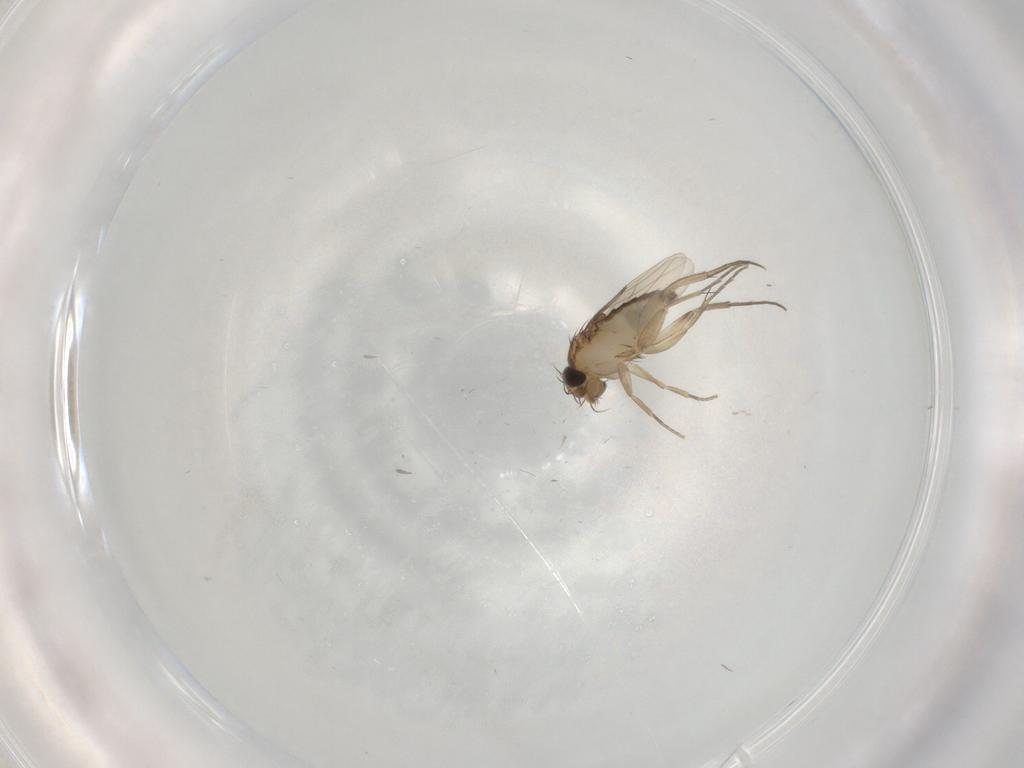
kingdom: Animalia
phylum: Arthropoda
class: Insecta
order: Diptera
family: Phoridae
